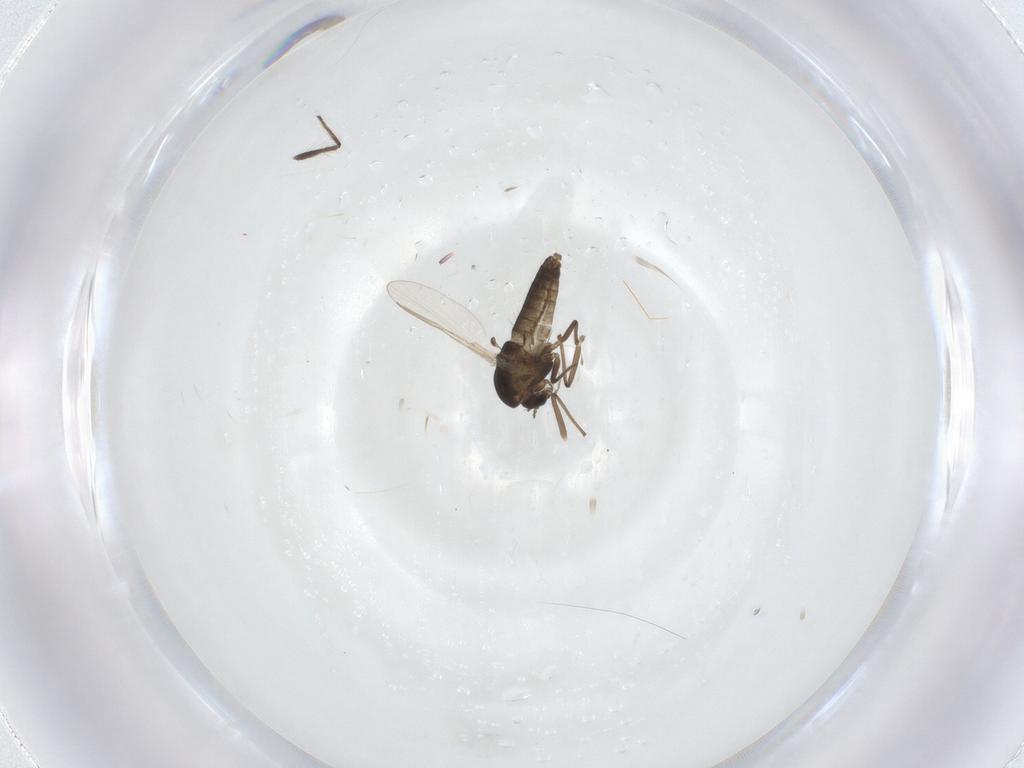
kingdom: Animalia
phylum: Arthropoda
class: Insecta
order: Diptera
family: Chironomidae
